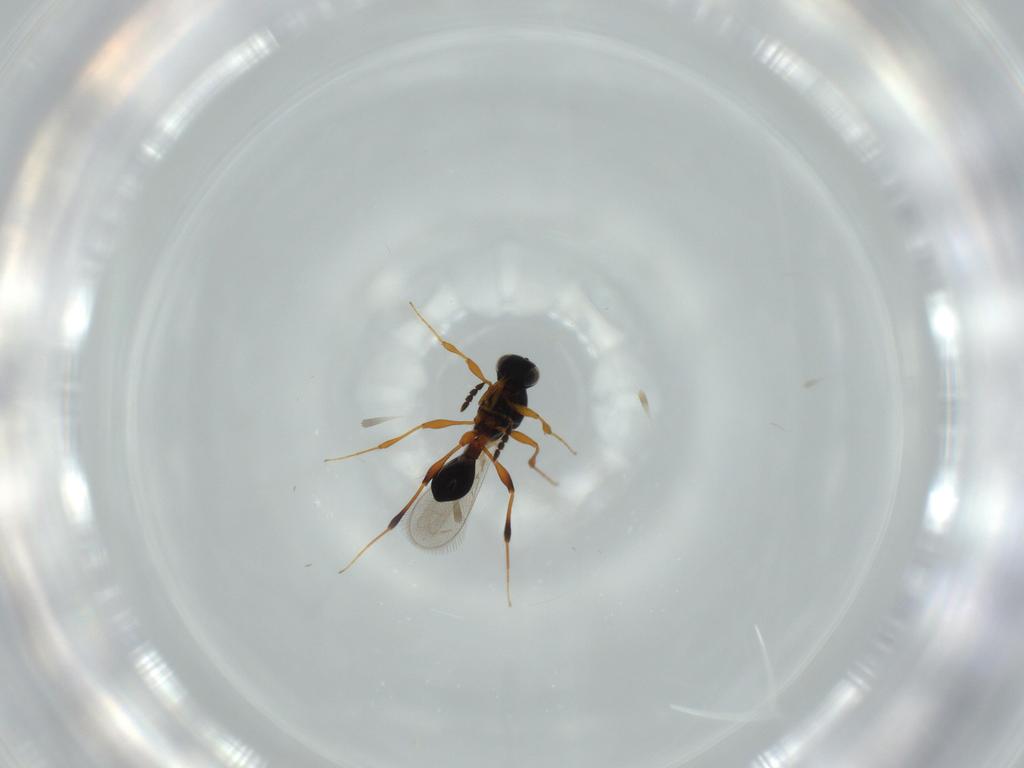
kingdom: Animalia
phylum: Arthropoda
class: Insecta
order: Hymenoptera
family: Platygastridae
